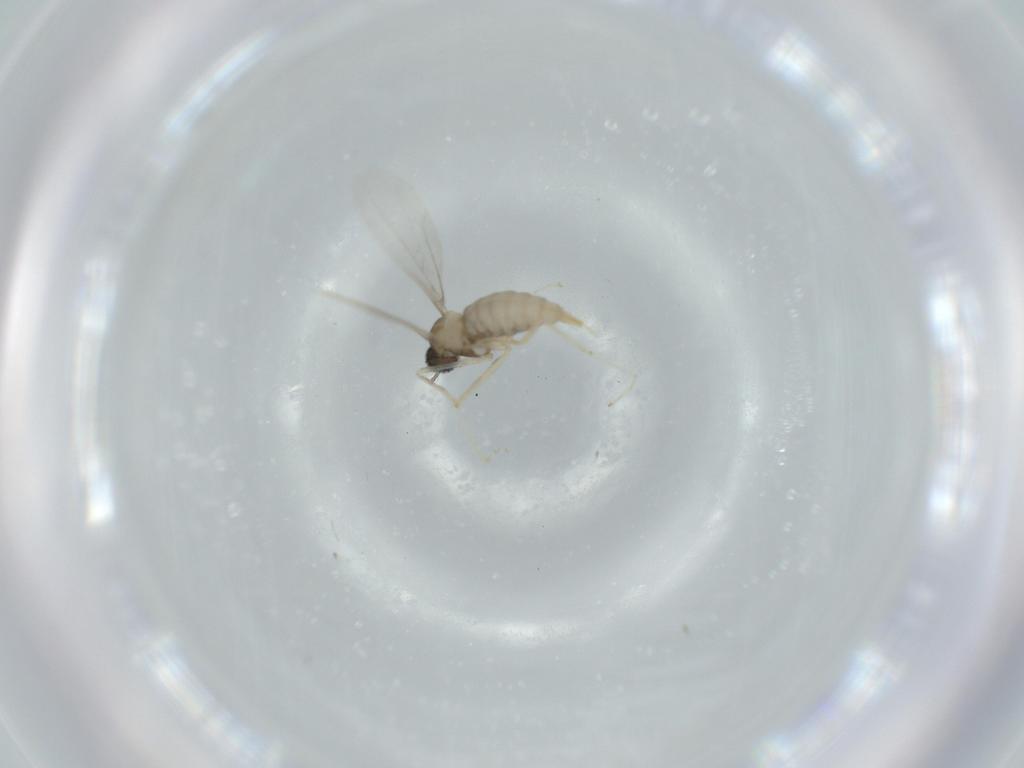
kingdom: Animalia
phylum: Arthropoda
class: Insecta
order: Diptera
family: Cecidomyiidae
